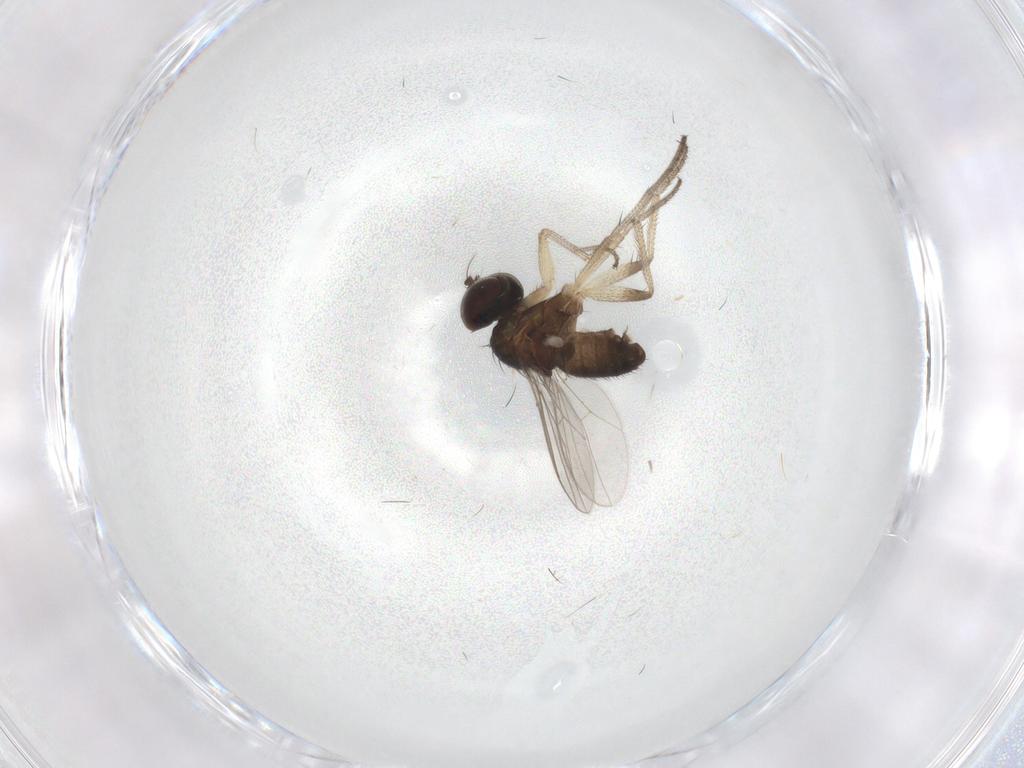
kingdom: Animalia
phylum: Arthropoda
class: Insecta
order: Diptera
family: Dolichopodidae
